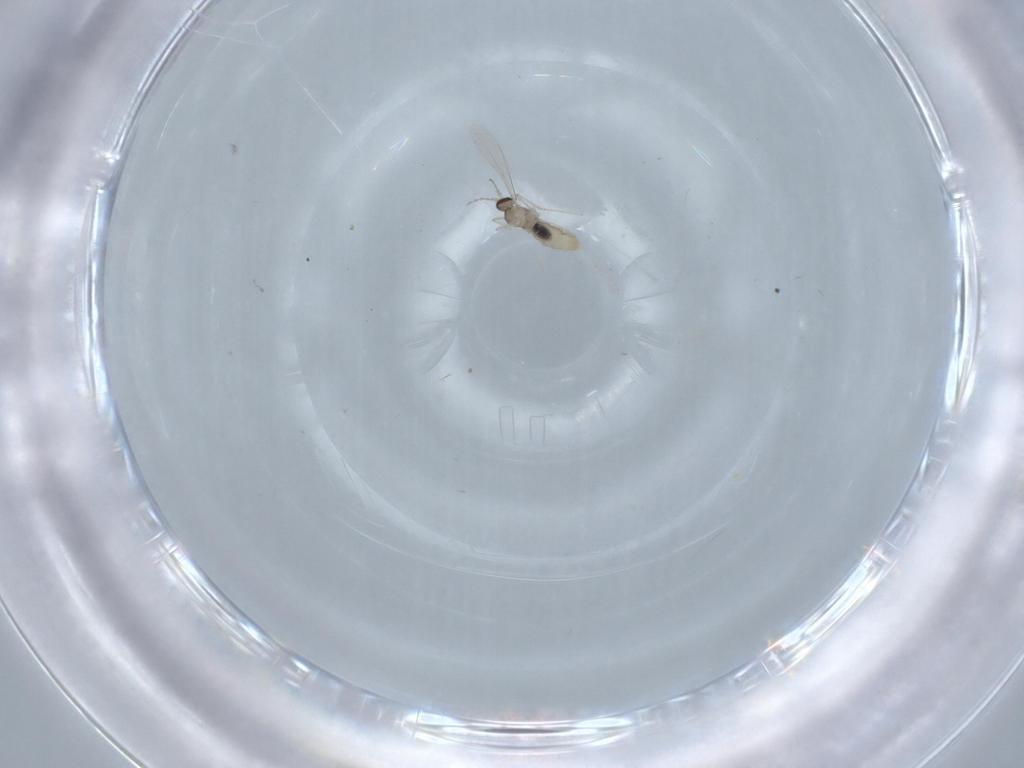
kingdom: Animalia
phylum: Arthropoda
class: Insecta
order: Diptera
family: Cecidomyiidae
